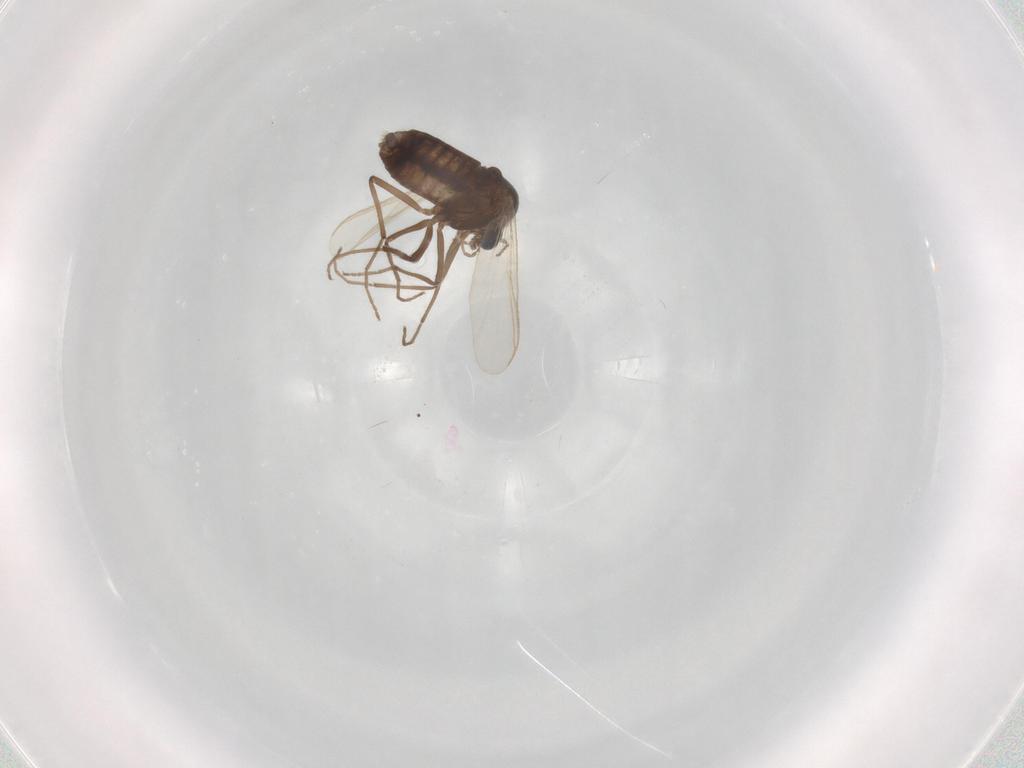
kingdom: Animalia
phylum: Arthropoda
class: Insecta
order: Diptera
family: Chironomidae
